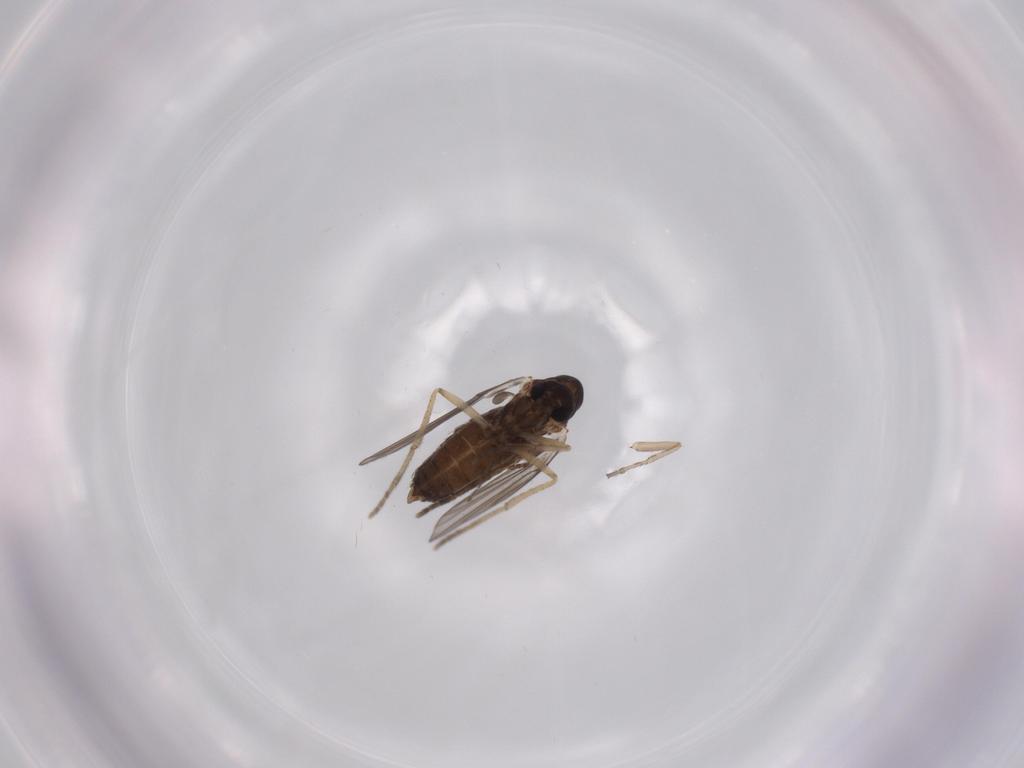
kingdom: Animalia
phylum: Arthropoda
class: Insecta
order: Diptera
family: Psychodidae
